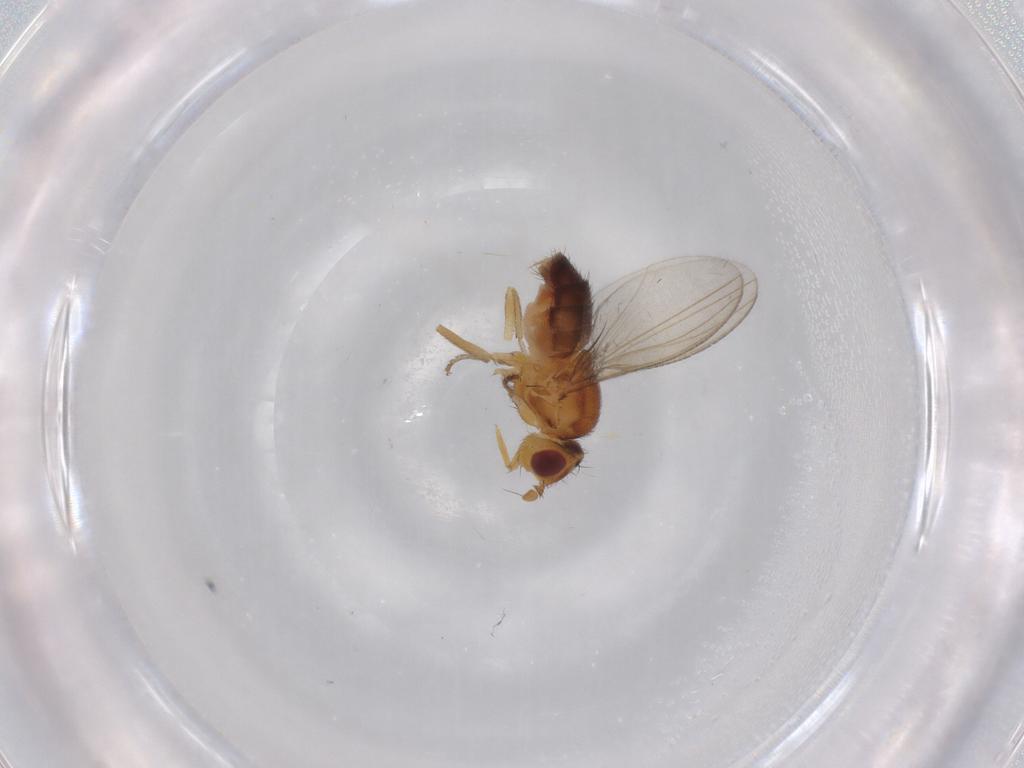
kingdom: Animalia
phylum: Arthropoda
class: Insecta
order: Diptera
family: Milichiidae
